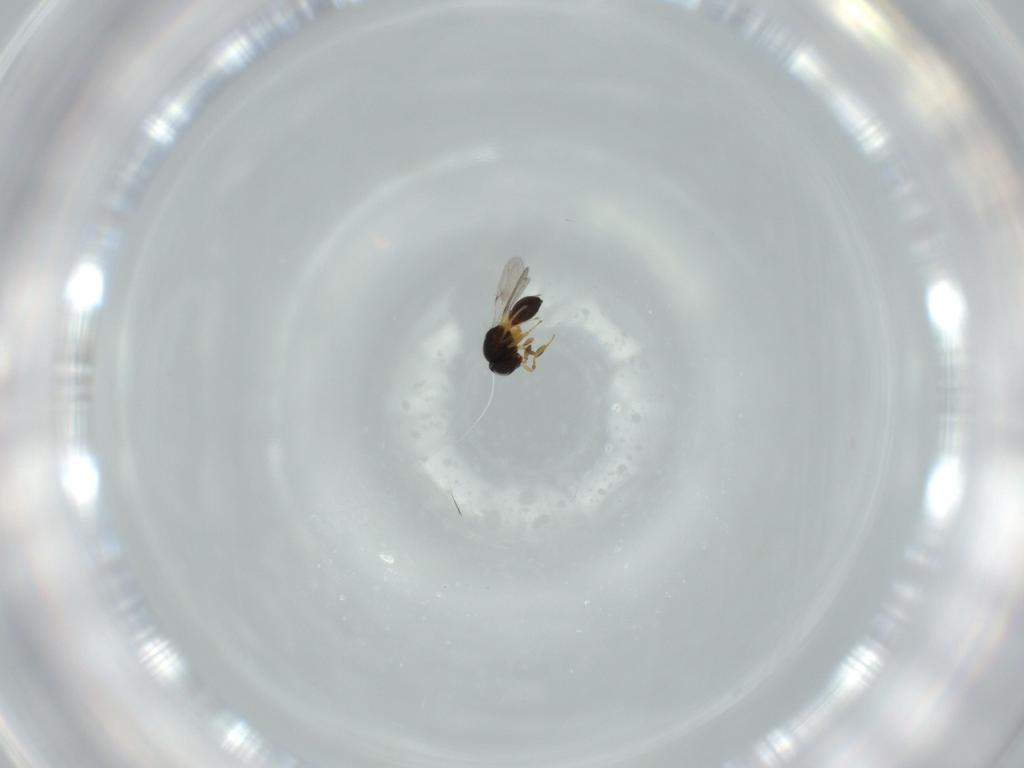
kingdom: Animalia
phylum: Arthropoda
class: Insecta
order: Hymenoptera
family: Scelionidae
